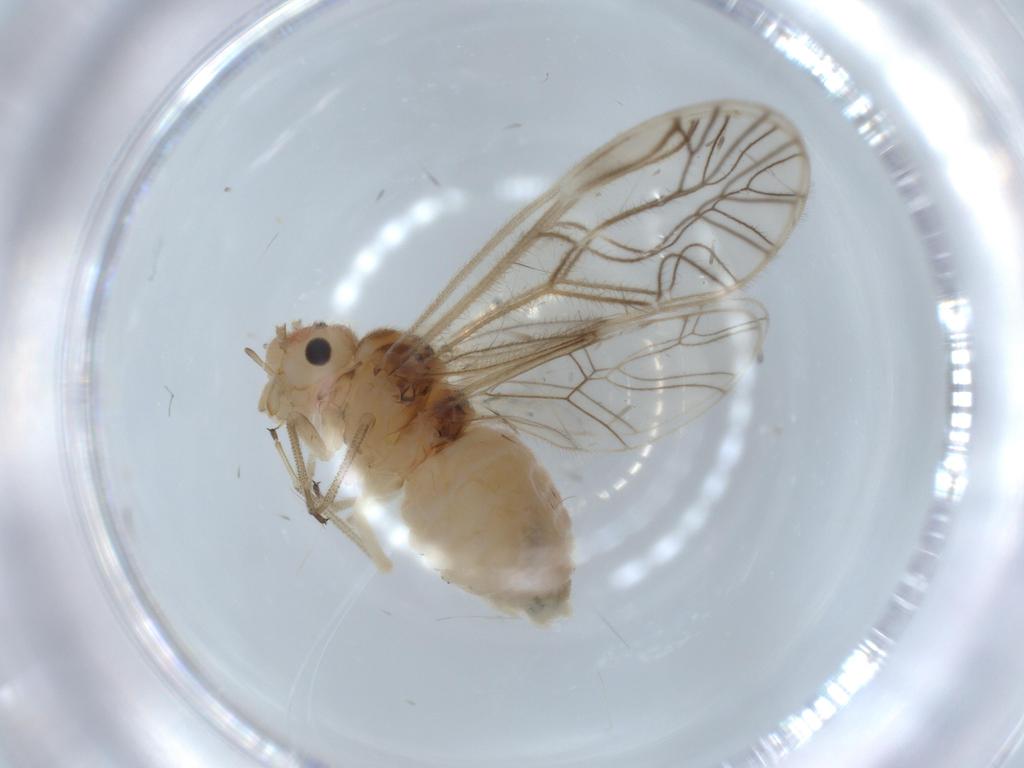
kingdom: Animalia
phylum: Arthropoda
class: Insecta
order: Psocodea
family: Amphipsocidae
